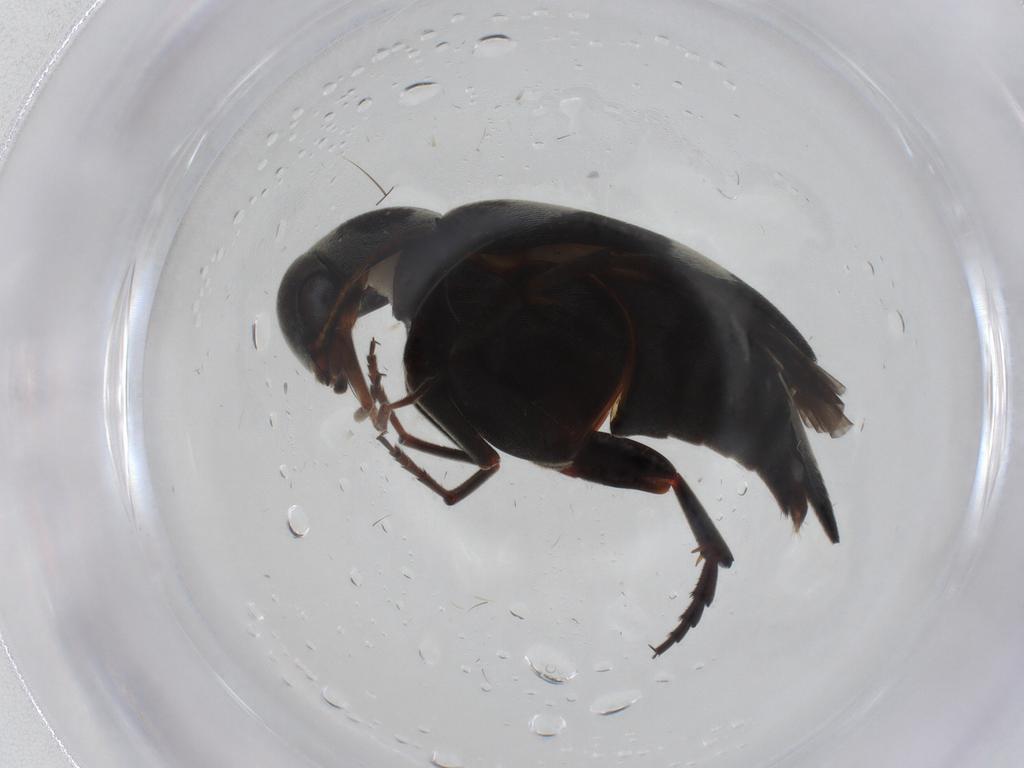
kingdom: Animalia
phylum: Arthropoda
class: Insecta
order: Coleoptera
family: Mordellidae
